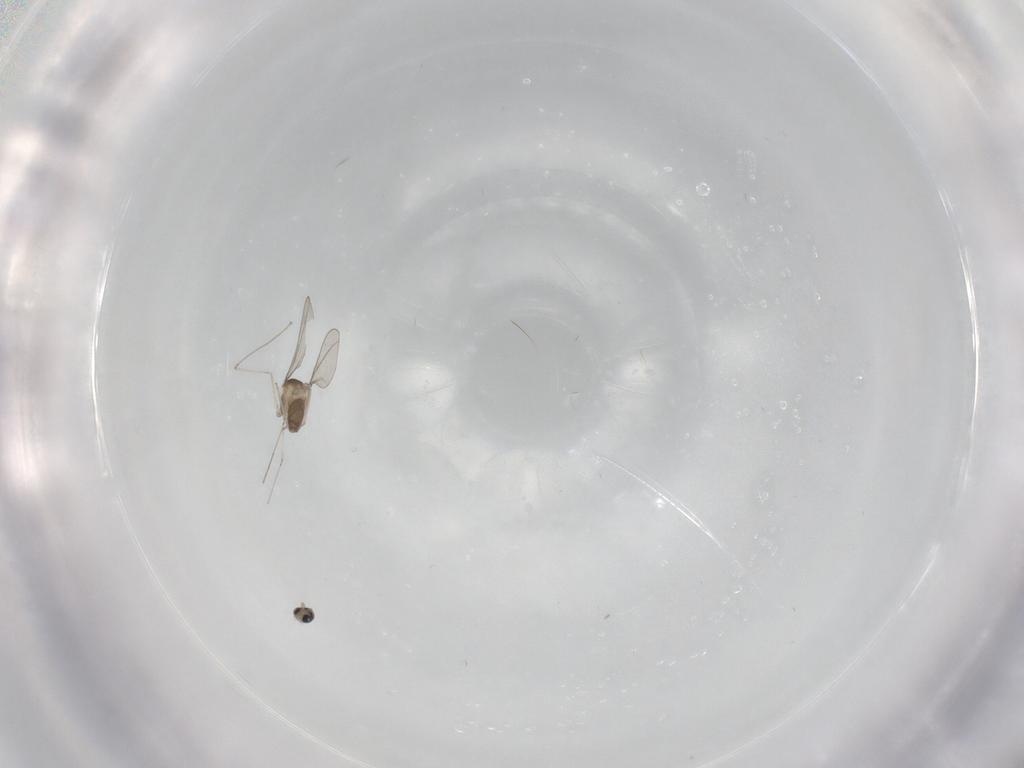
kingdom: Animalia
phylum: Arthropoda
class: Insecta
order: Diptera
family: Cecidomyiidae
